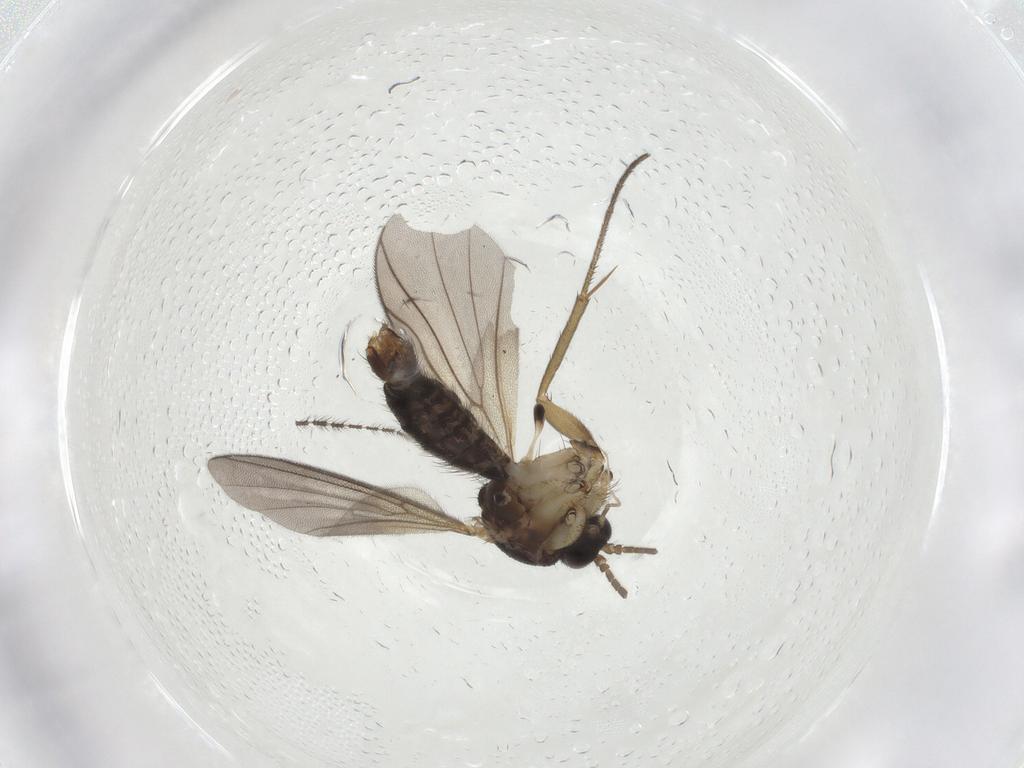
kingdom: Animalia
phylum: Arthropoda
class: Insecta
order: Diptera
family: Mycetophilidae
